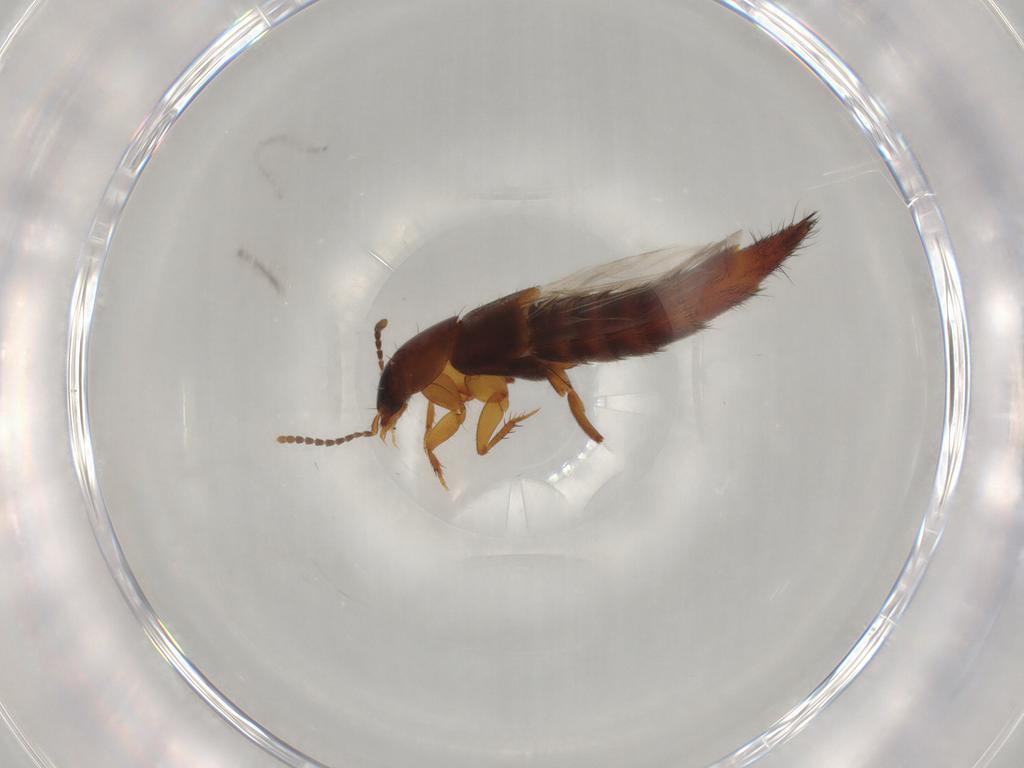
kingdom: Animalia
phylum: Arthropoda
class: Insecta
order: Coleoptera
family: Staphylinidae
